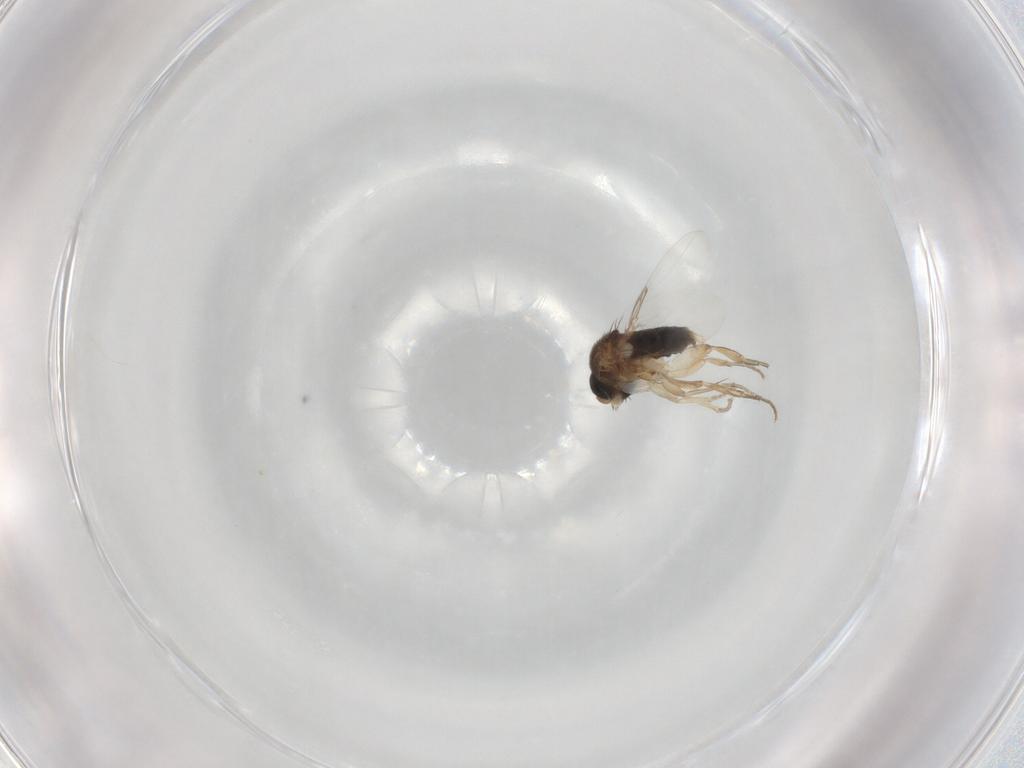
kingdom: Animalia
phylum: Arthropoda
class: Insecta
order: Diptera
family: Phoridae
